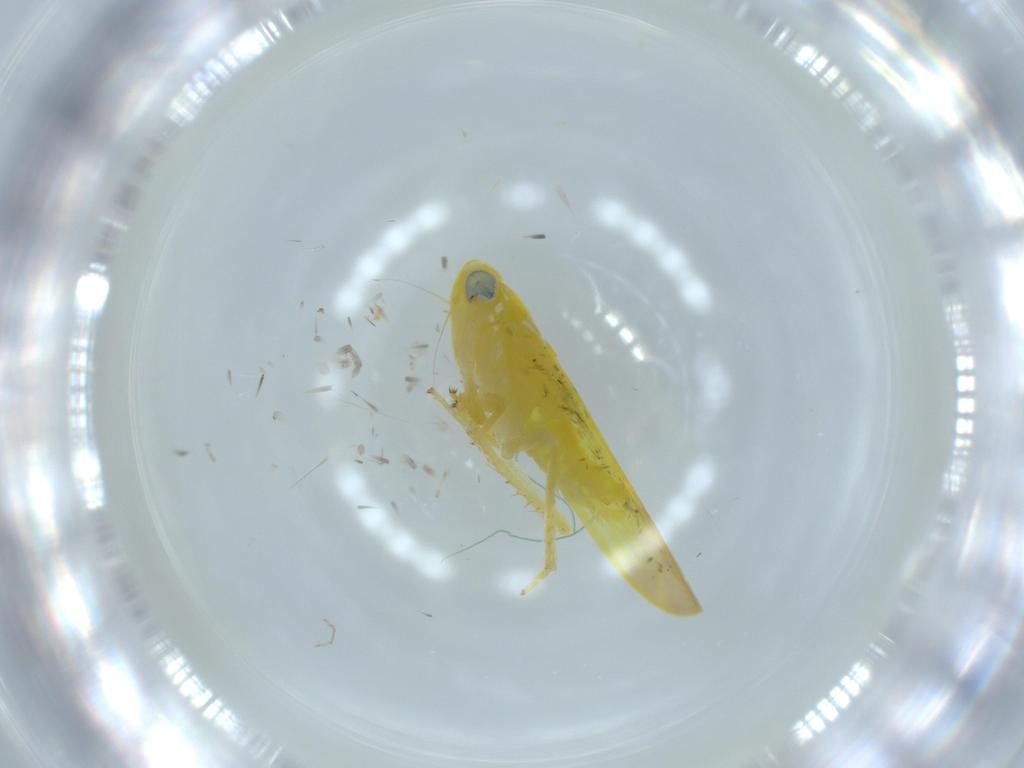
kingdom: Animalia
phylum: Arthropoda
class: Insecta
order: Hemiptera
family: Cicadellidae
